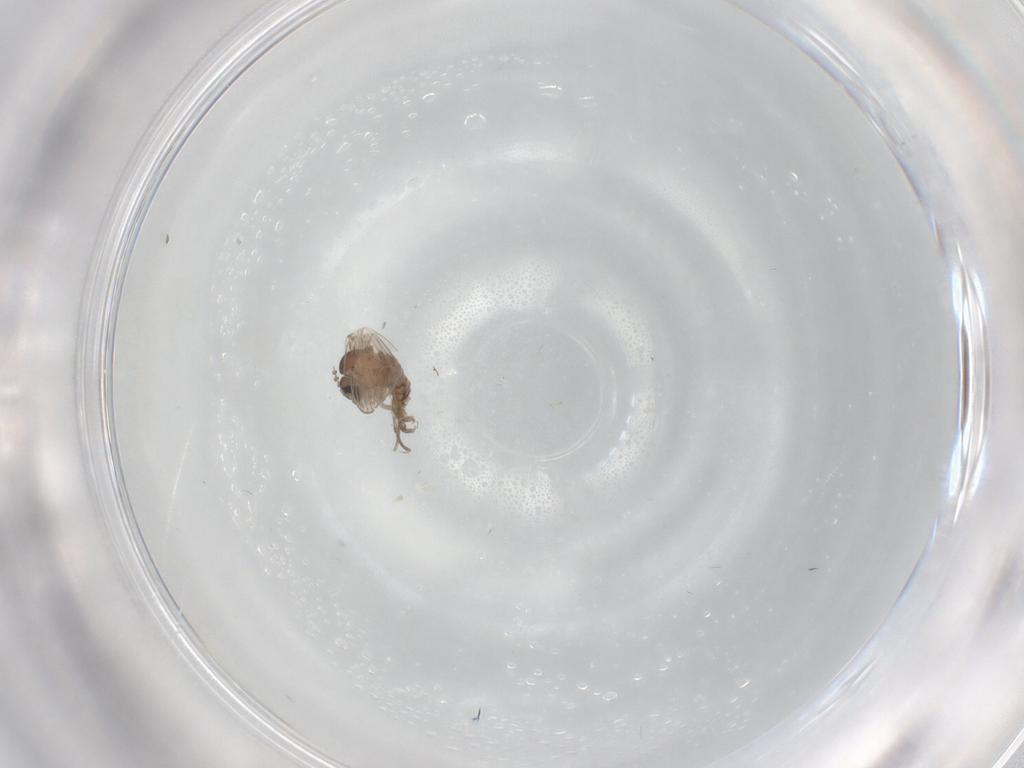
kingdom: Animalia
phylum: Arthropoda
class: Insecta
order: Diptera
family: Psychodidae
